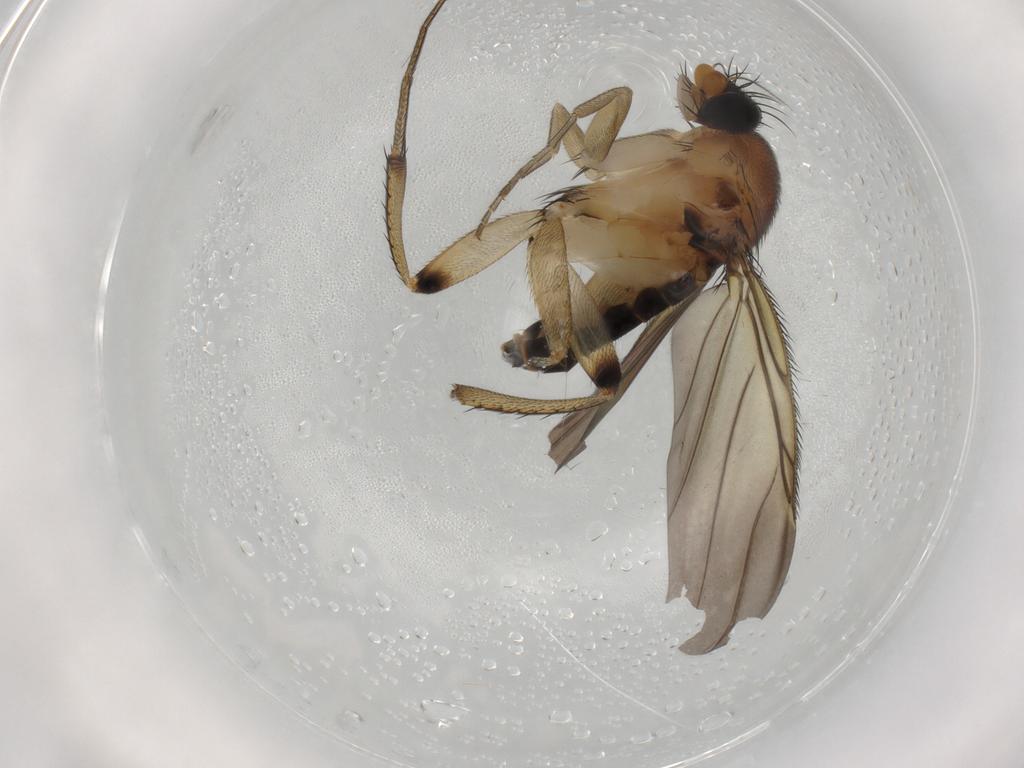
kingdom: Animalia
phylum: Arthropoda
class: Insecta
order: Diptera
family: Phoridae
